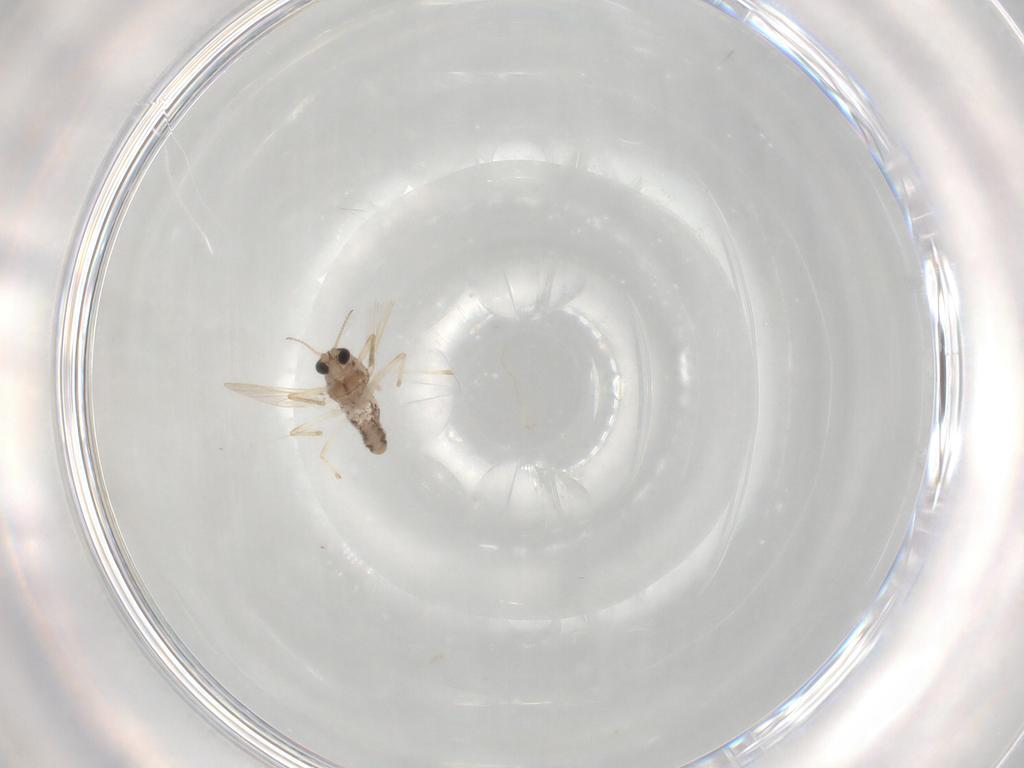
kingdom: Animalia
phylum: Arthropoda
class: Insecta
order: Diptera
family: Chironomidae
